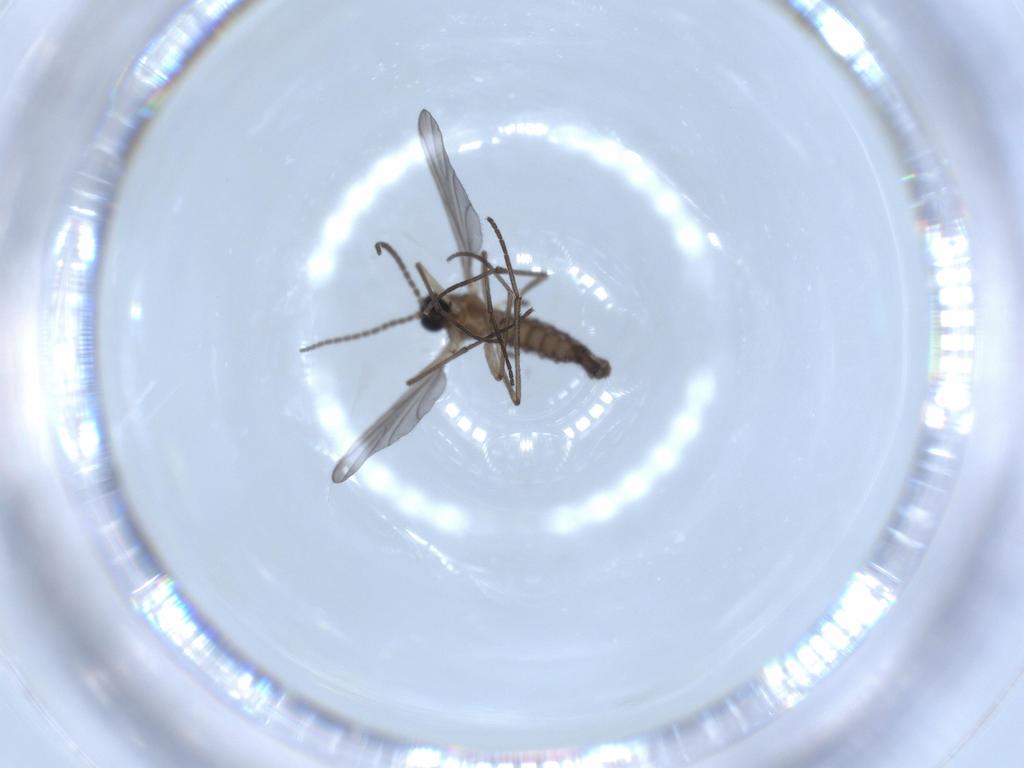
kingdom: Animalia
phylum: Arthropoda
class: Insecta
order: Diptera
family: Sciaridae
